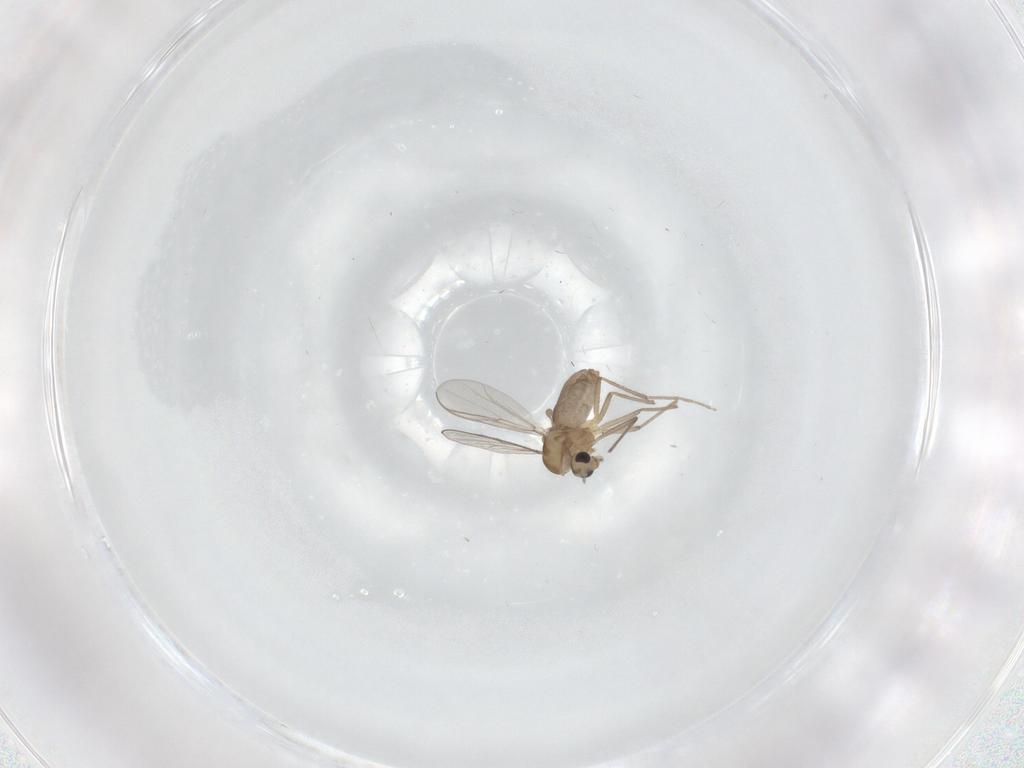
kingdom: Animalia
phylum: Arthropoda
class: Insecta
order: Diptera
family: Chironomidae
